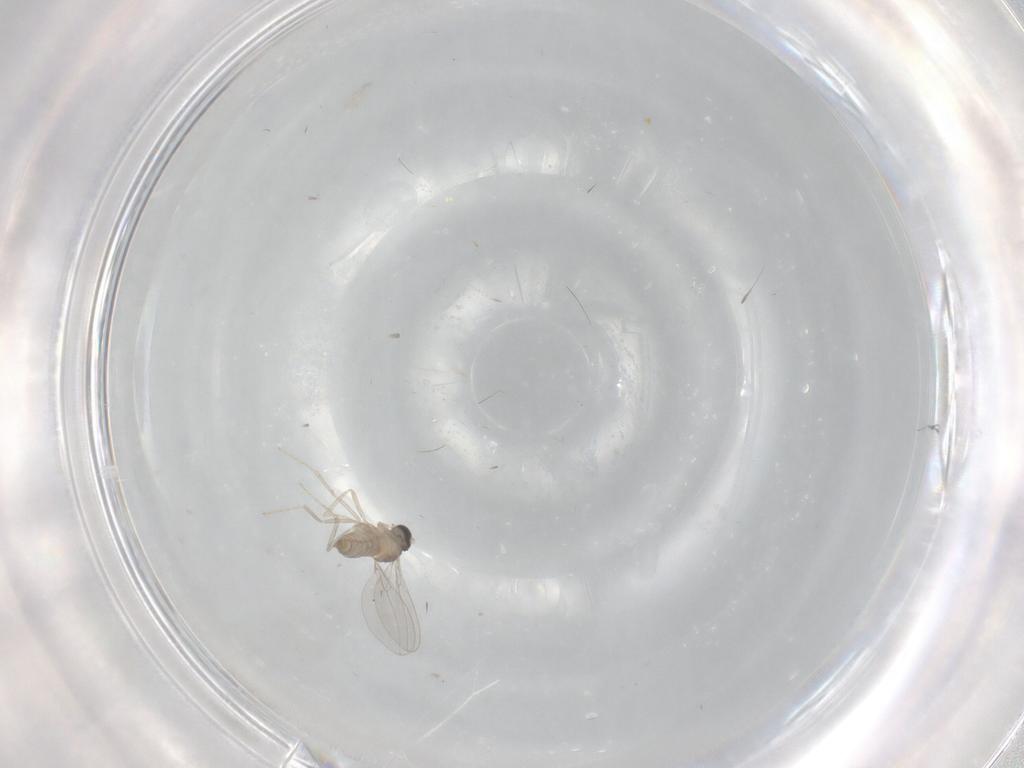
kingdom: Animalia
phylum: Arthropoda
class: Insecta
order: Diptera
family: Cecidomyiidae
